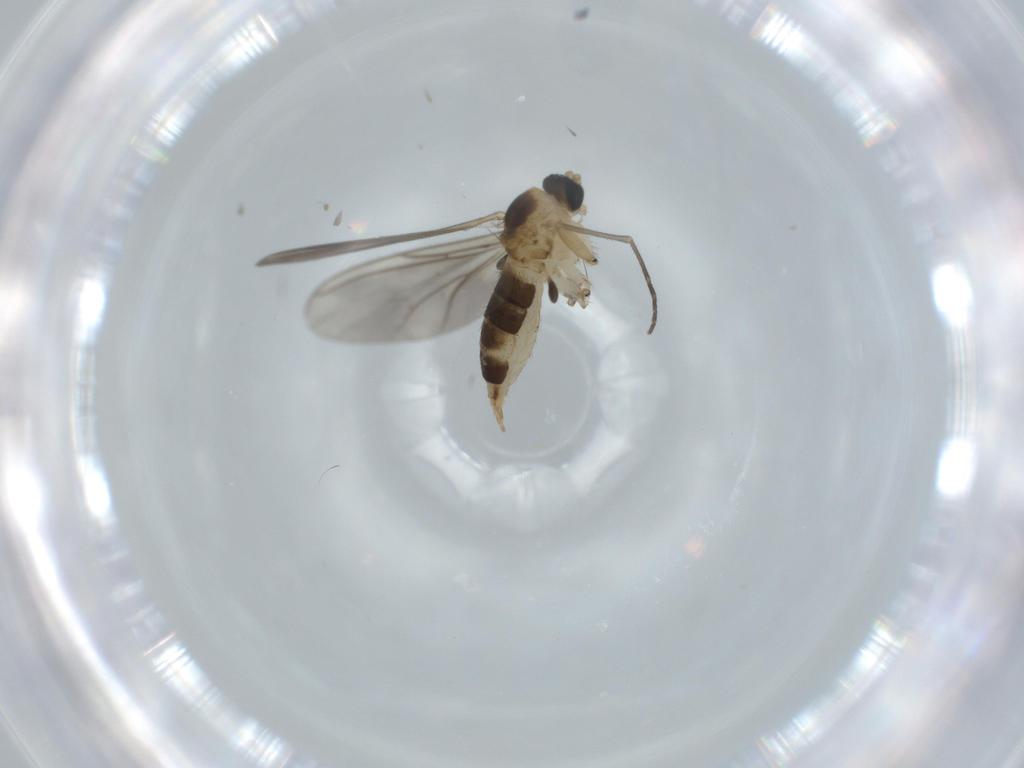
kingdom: Animalia
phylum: Arthropoda
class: Insecta
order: Diptera
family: Sciaridae
